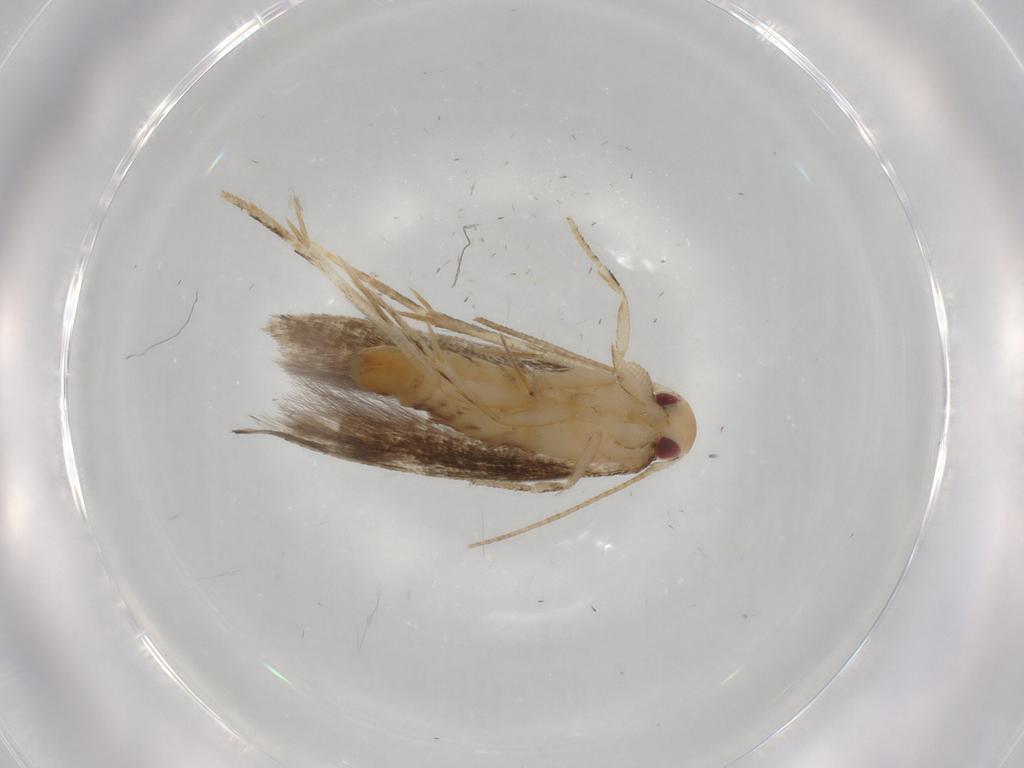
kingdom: Animalia
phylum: Arthropoda
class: Insecta
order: Lepidoptera
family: Momphidae
